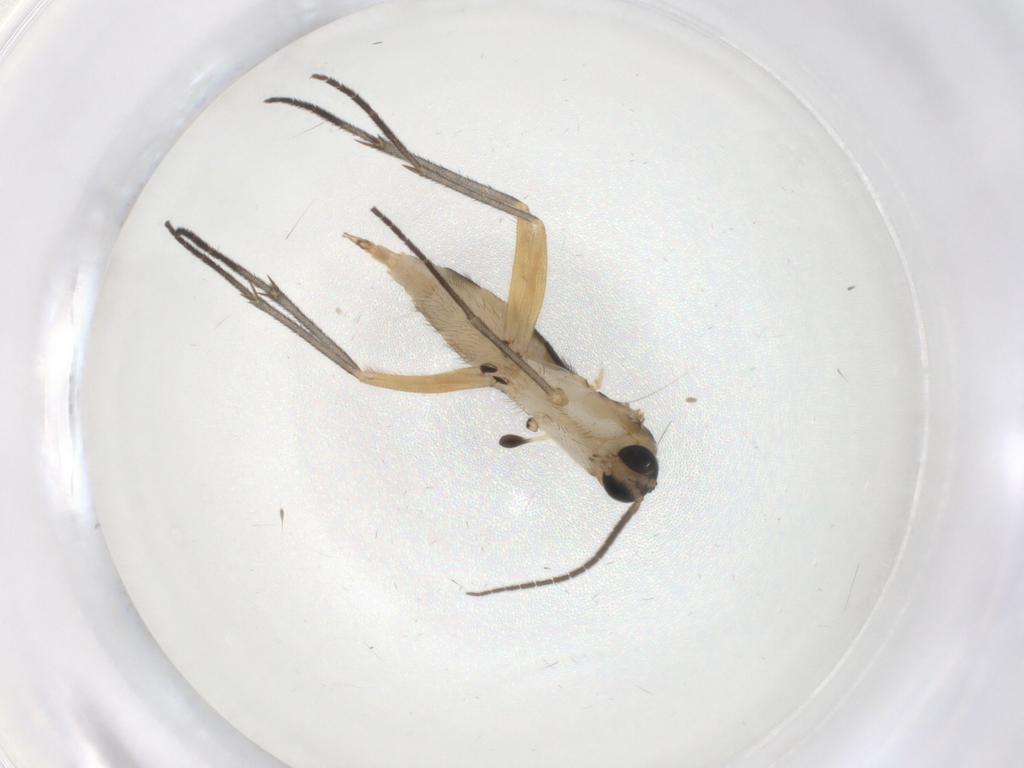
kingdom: Animalia
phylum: Arthropoda
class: Insecta
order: Diptera
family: Sciaridae
